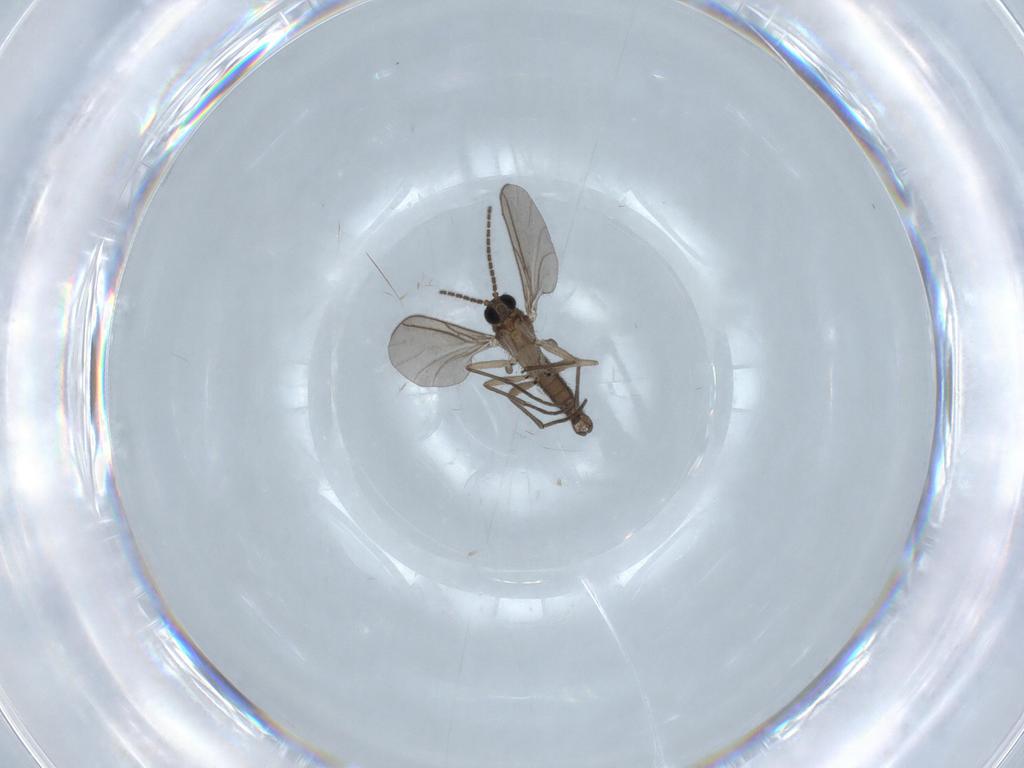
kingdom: Animalia
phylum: Arthropoda
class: Insecta
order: Diptera
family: Sciaridae
